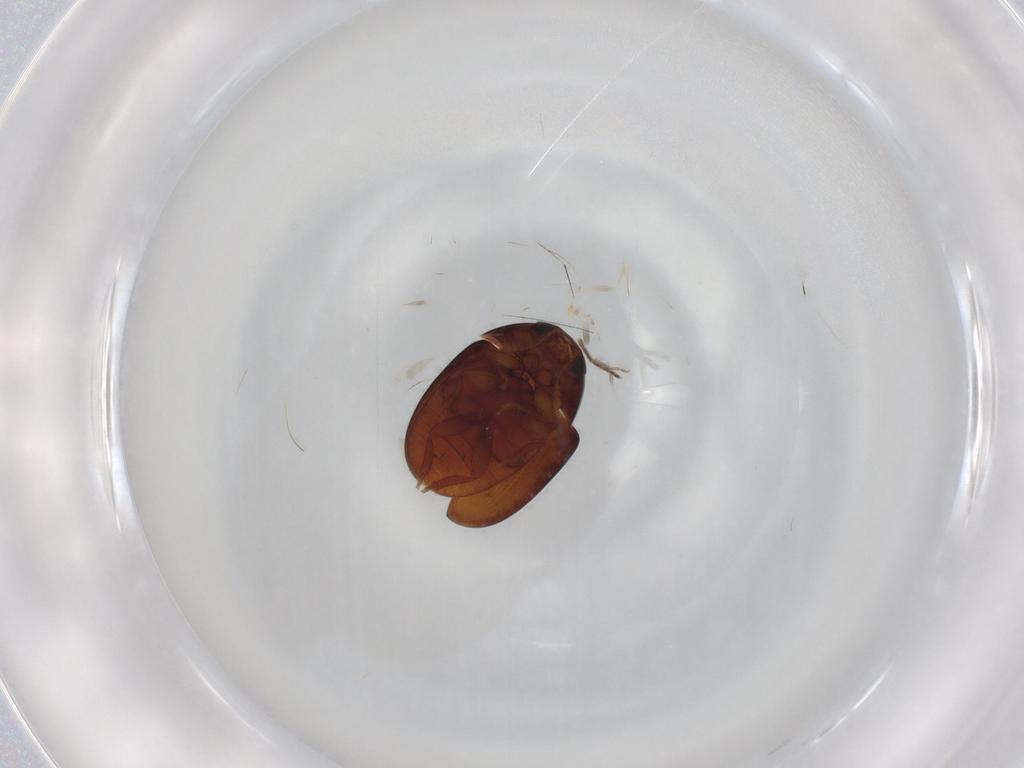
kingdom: Animalia
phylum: Arthropoda
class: Insecta
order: Coleoptera
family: Phalacridae
